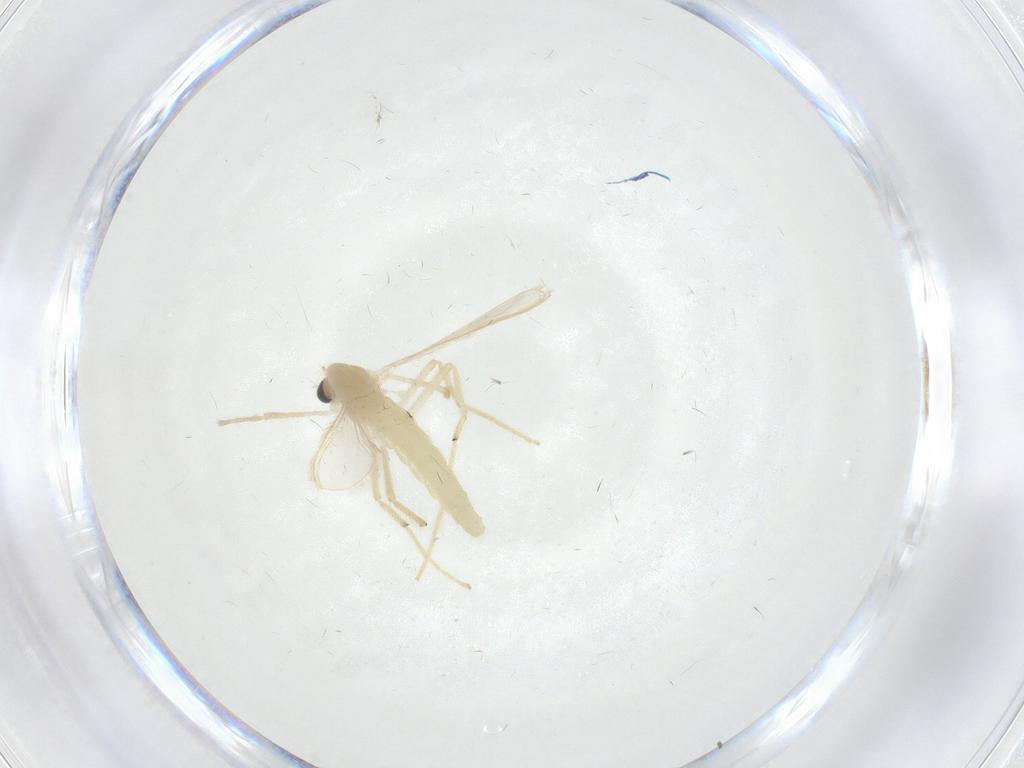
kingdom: Animalia
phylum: Arthropoda
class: Insecta
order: Diptera
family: Chironomidae
